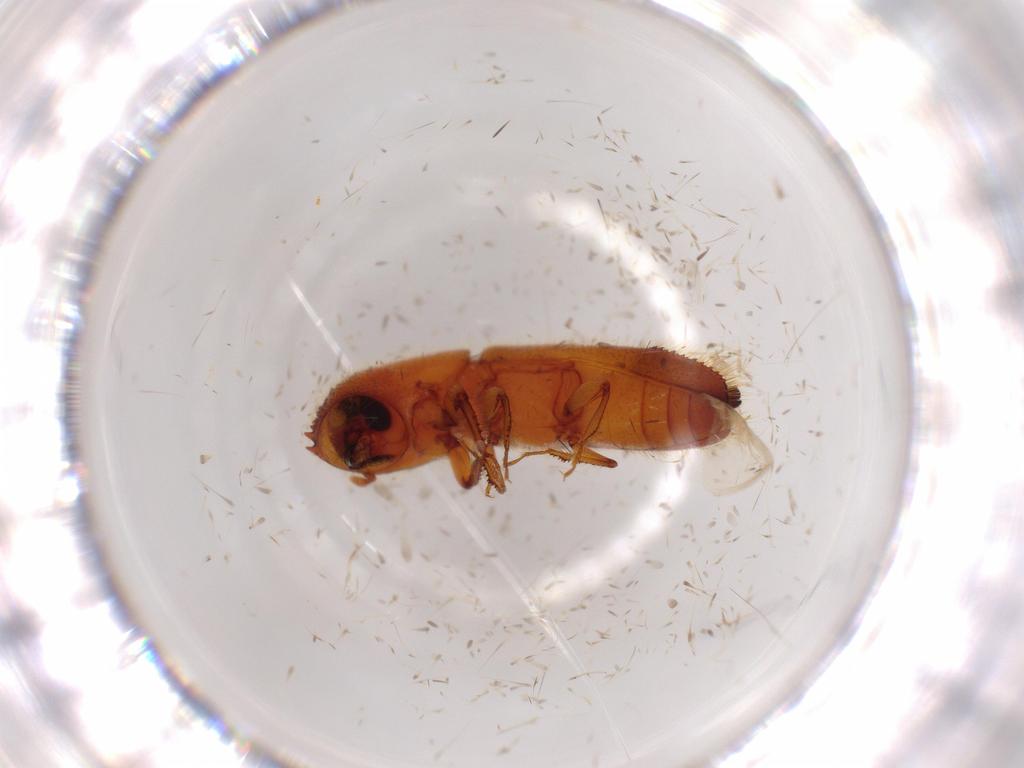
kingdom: Animalia
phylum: Arthropoda
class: Insecta
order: Coleoptera
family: Curculionidae
